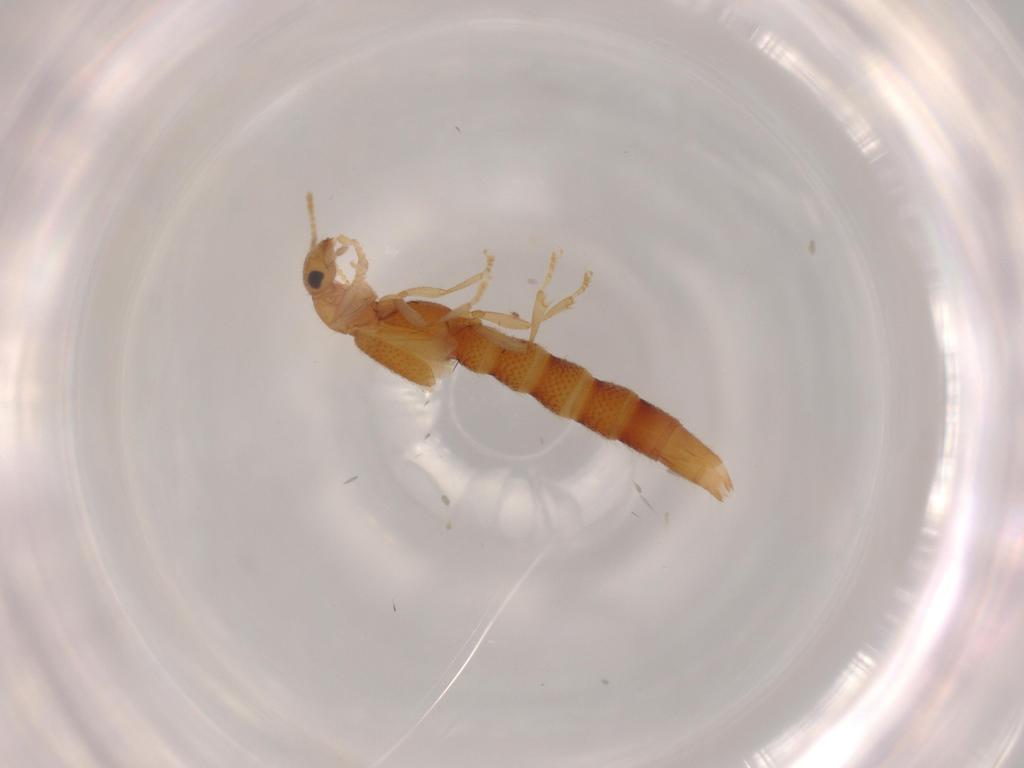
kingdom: Animalia
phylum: Arthropoda
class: Insecta
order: Coleoptera
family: Staphylinidae
